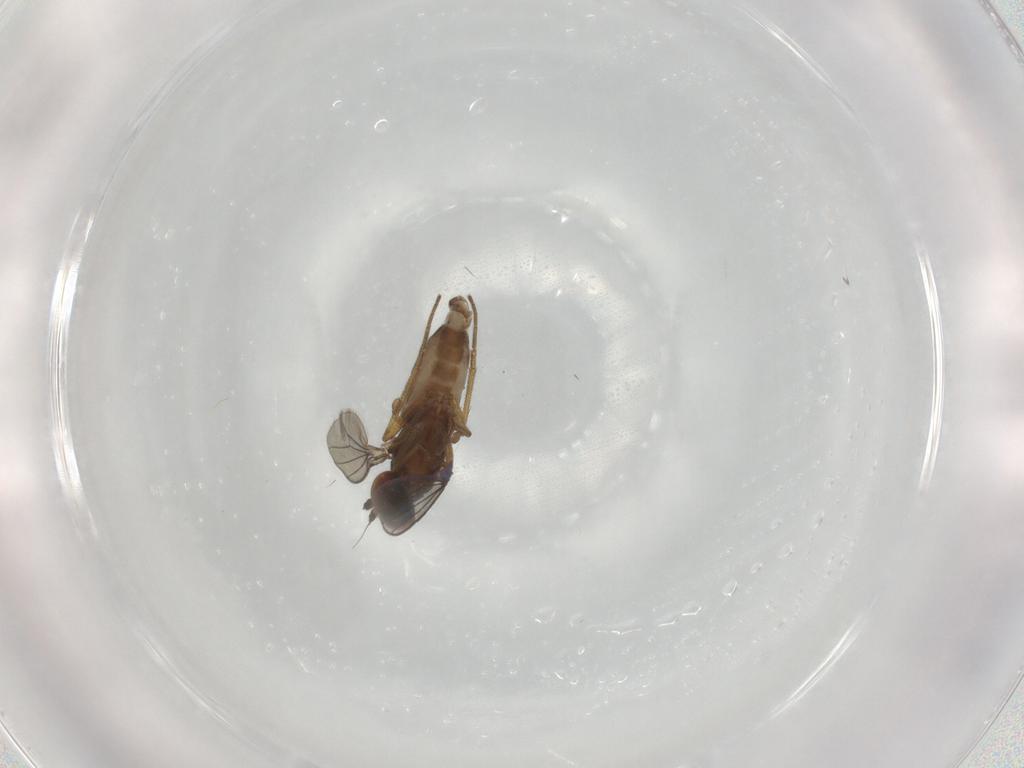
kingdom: Animalia
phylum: Arthropoda
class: Insecta
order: Diptera
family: Dolichopodidae
